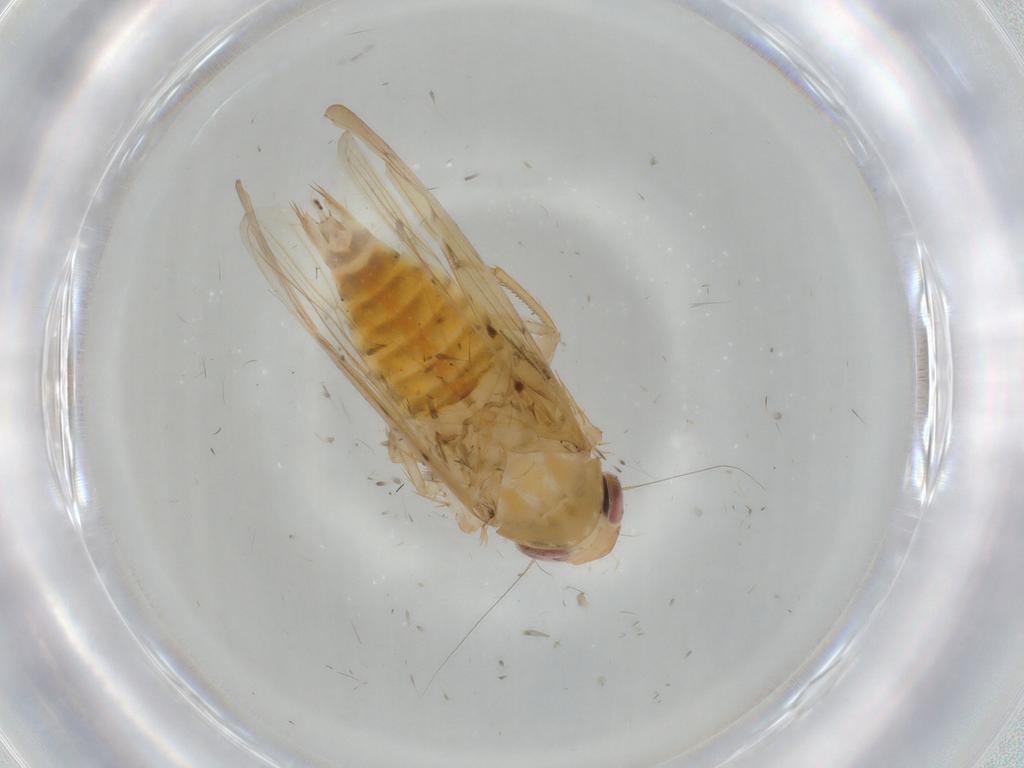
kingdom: Animalia
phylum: Arthropoda
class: Insecta
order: Hemiptera
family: Cicadellidae
